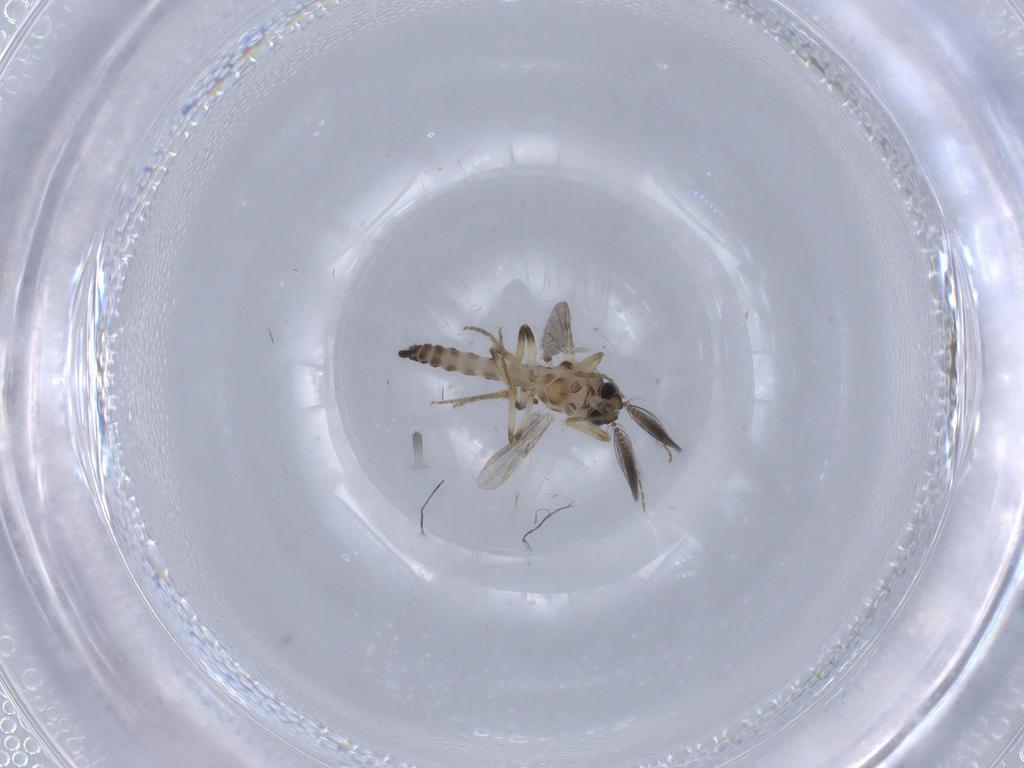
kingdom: Animalia
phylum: Arthropoda
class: Insecta
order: Diptera
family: Ceratopogonidae
